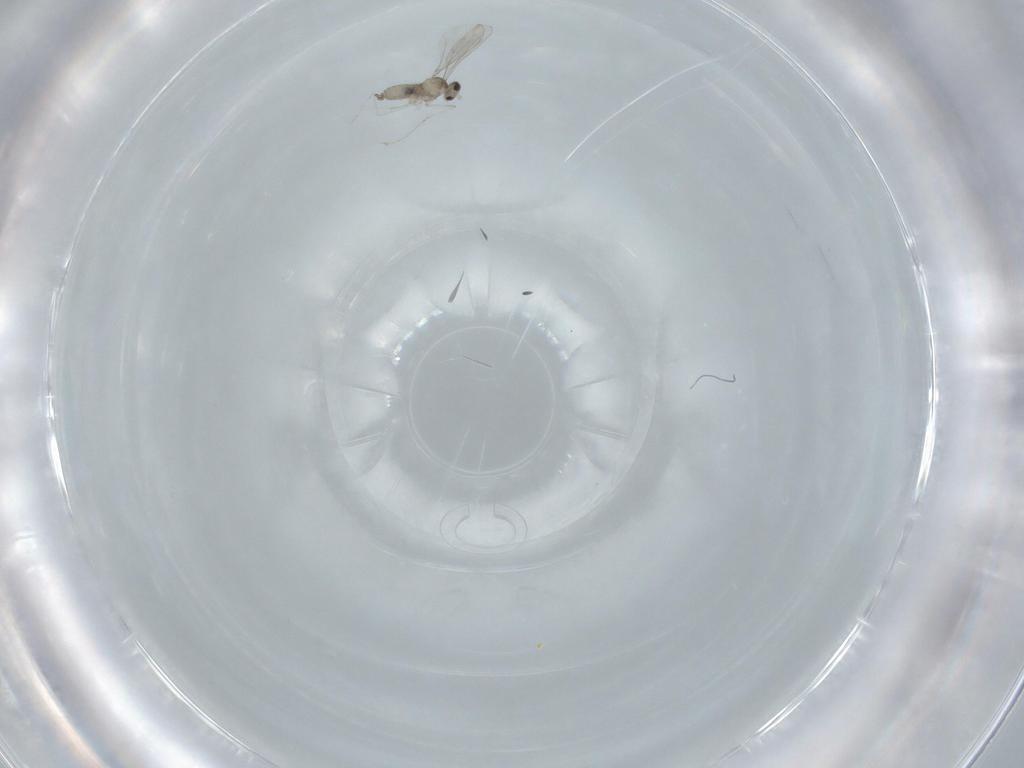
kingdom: Animalia
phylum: Arthropoda
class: Insecta
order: Diptera
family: Cecidomyiidae
